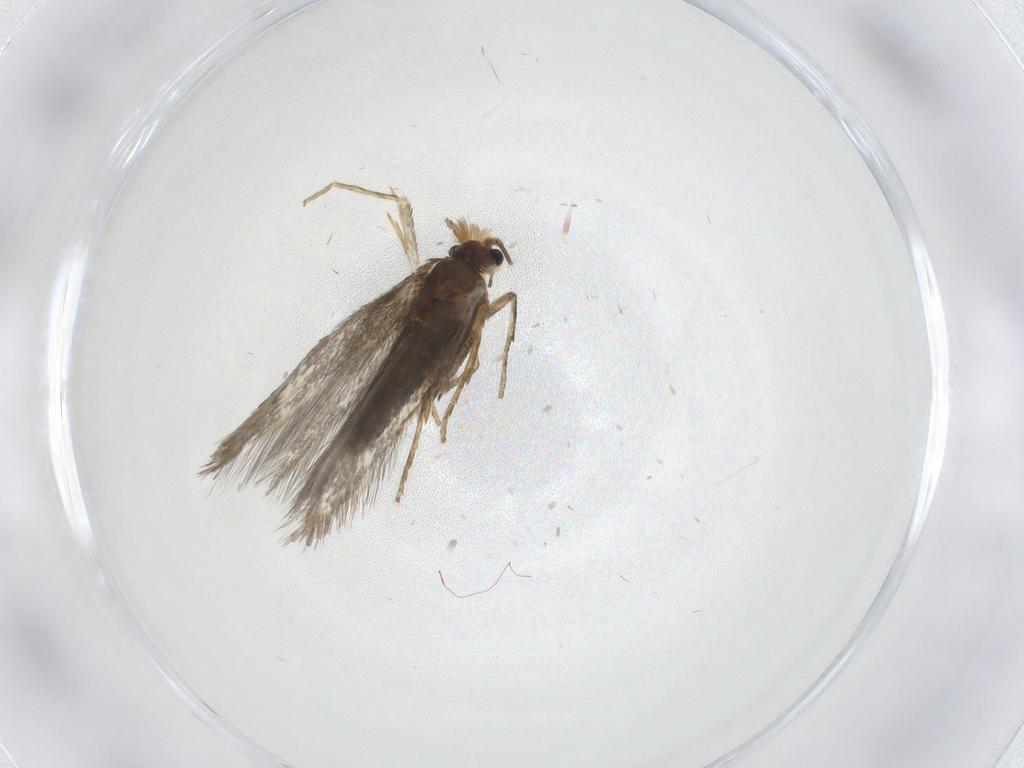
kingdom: Animalia
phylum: Arthropoda
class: Insecta
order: Lepidoptera
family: Nepticulidae
